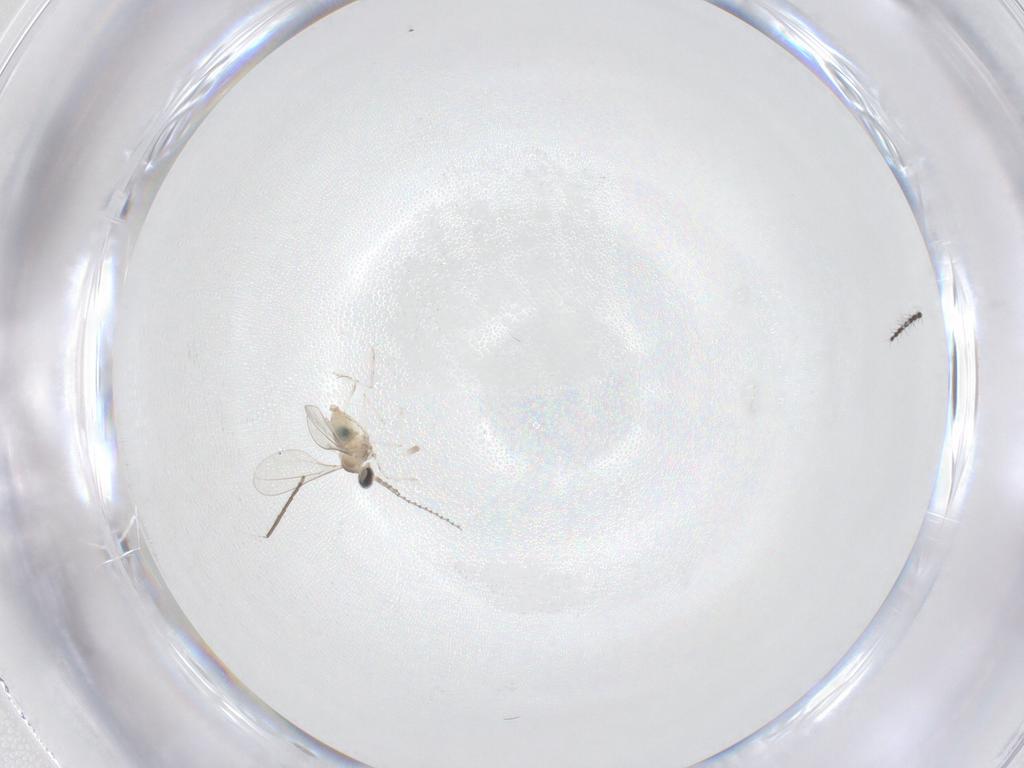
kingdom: Animalia
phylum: Arthropoda
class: Insecta
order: Diptera
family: Cecidomyiidae
